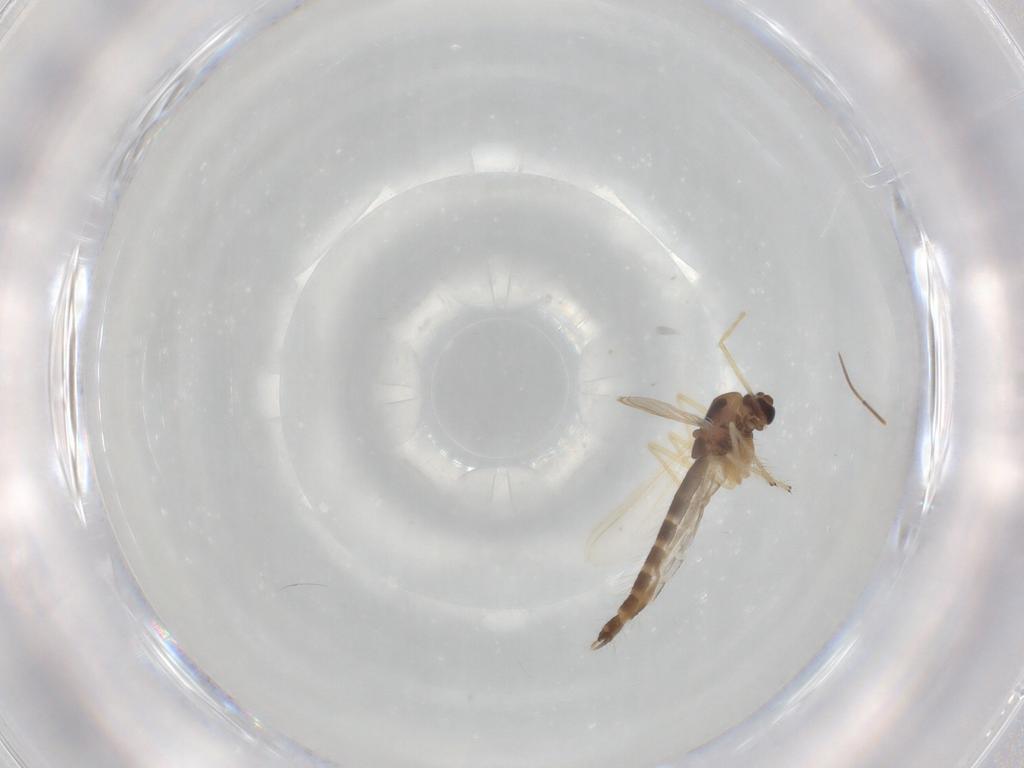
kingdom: Animalia
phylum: Arthropoda
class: Insecta
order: Diptera
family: Chironomidae
